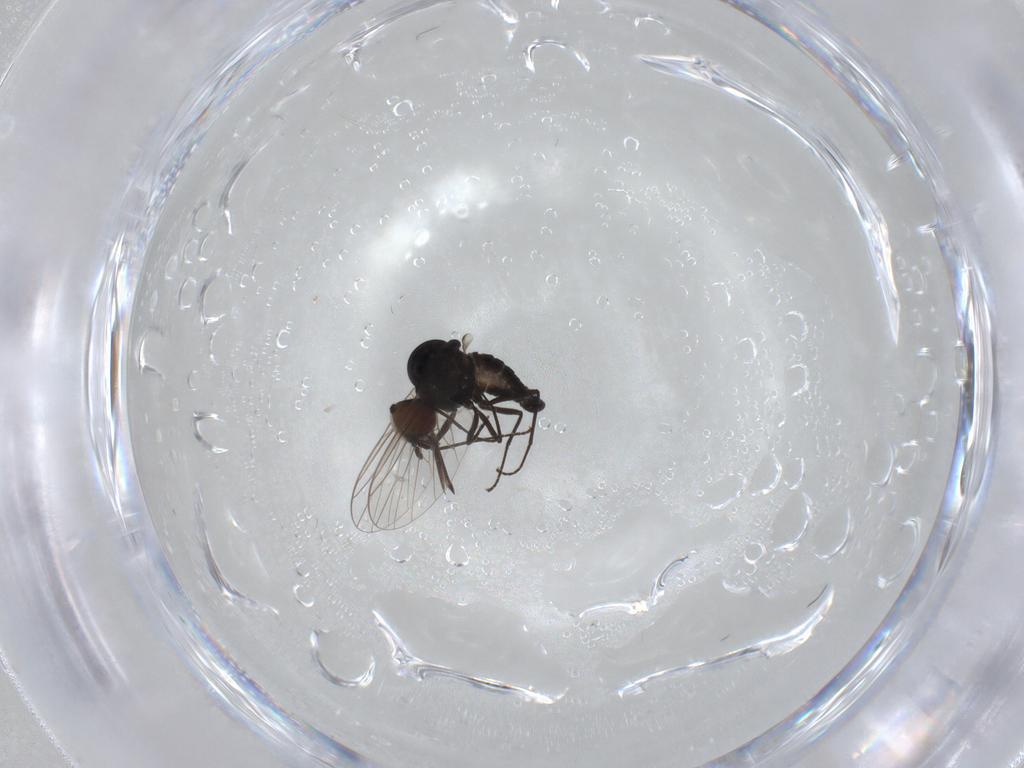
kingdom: Animalia
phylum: Arthropoda
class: Insecta
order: Diptera
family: Bombyliidae
